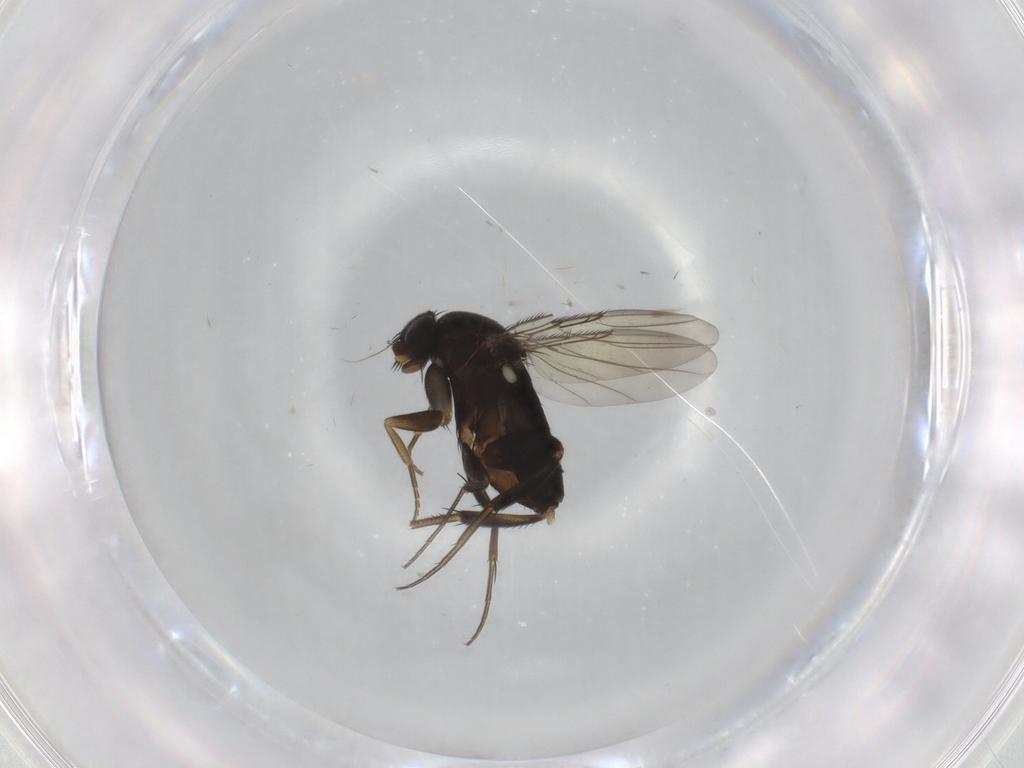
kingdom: Animalia
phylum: Arthropoda
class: Insecta
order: Diptera
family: Phoridae
